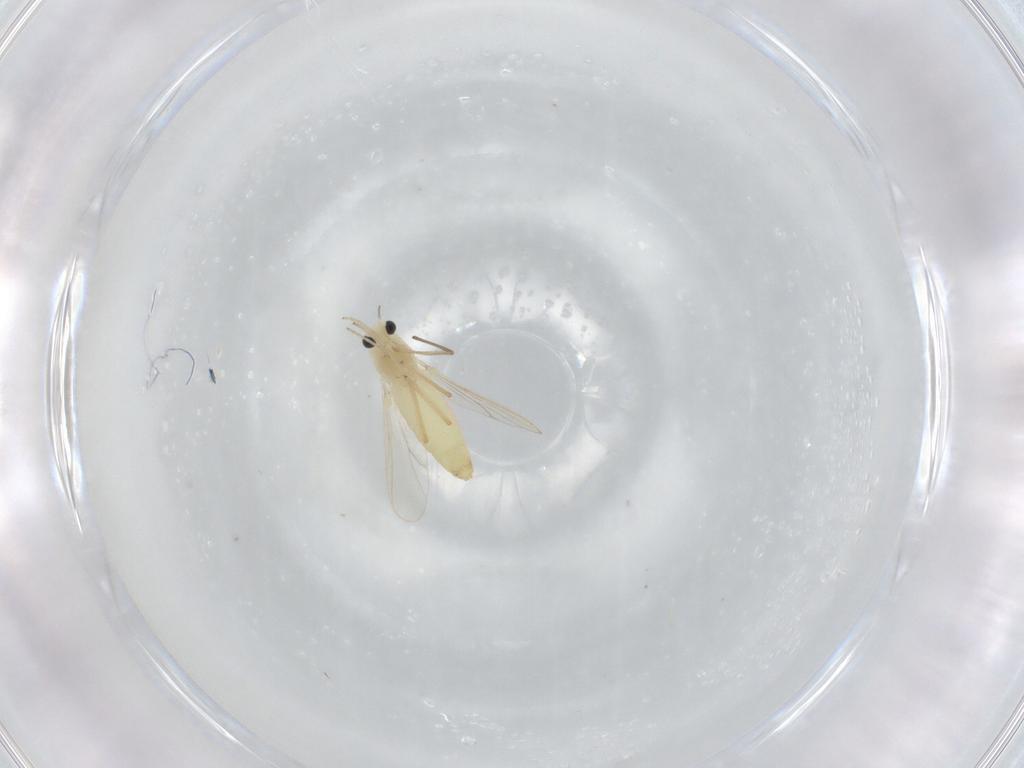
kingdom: Animalia
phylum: Arthropoda
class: Insecta
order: Diptera
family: Chironomidae
